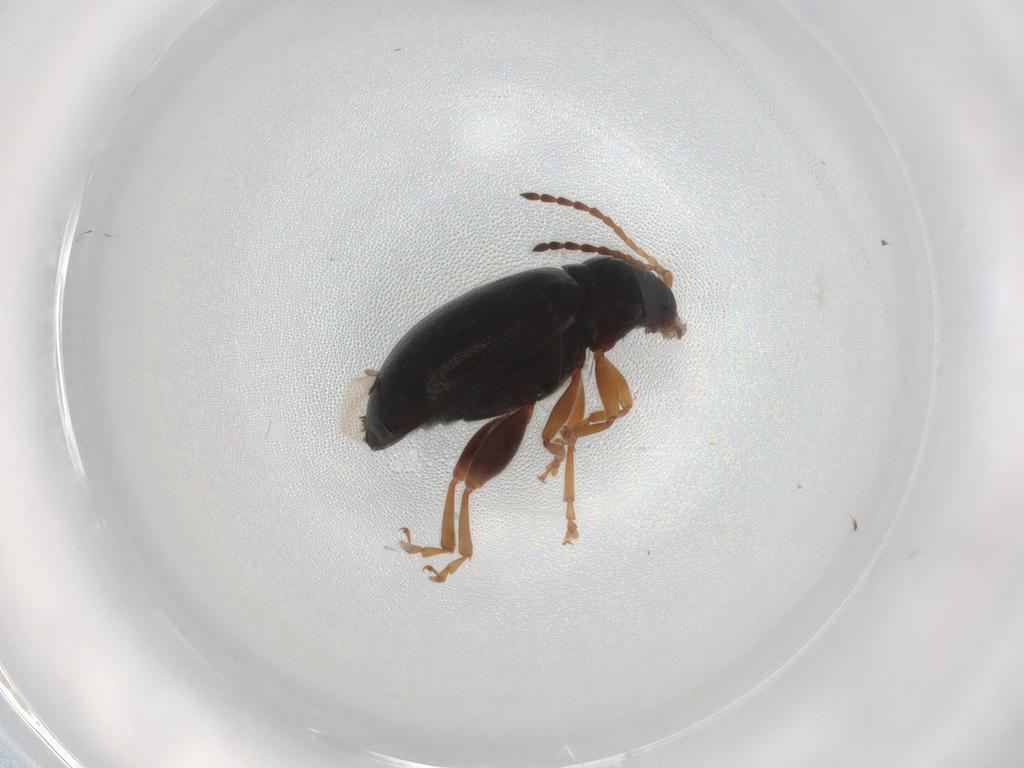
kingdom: Animalia
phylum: Arthropoda
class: Insecta
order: Coleoptera
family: Chrysomelidae
